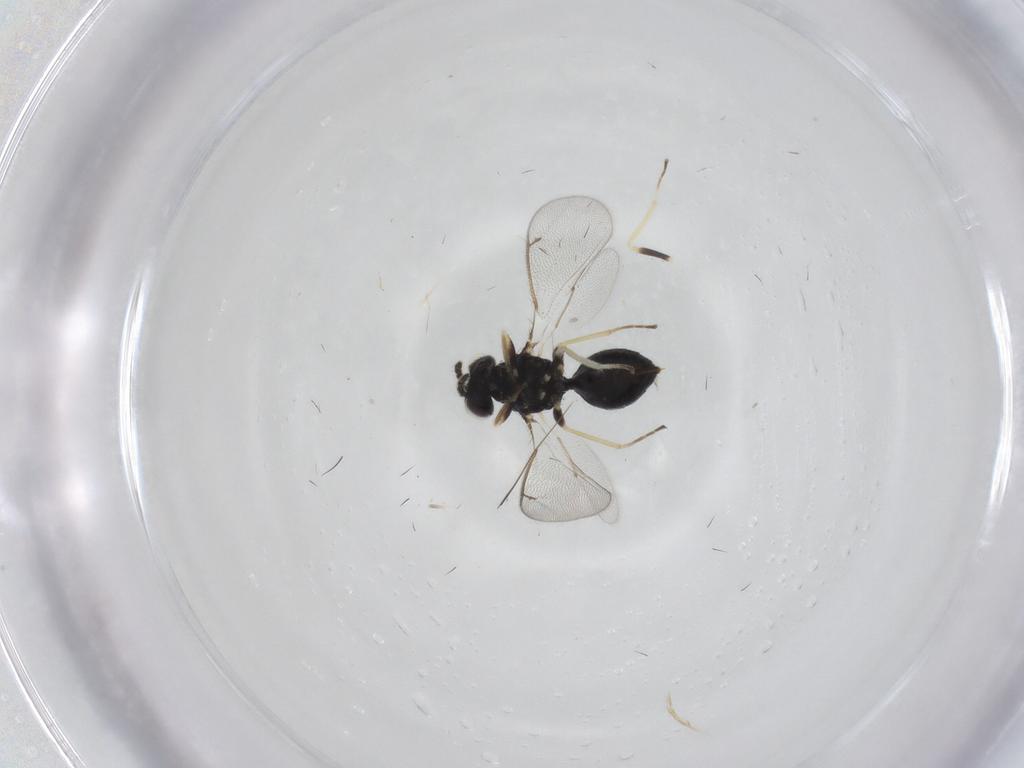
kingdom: Animalia
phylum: Arthropoda
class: Insecta
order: Hymenoptera
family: Eulophidae
